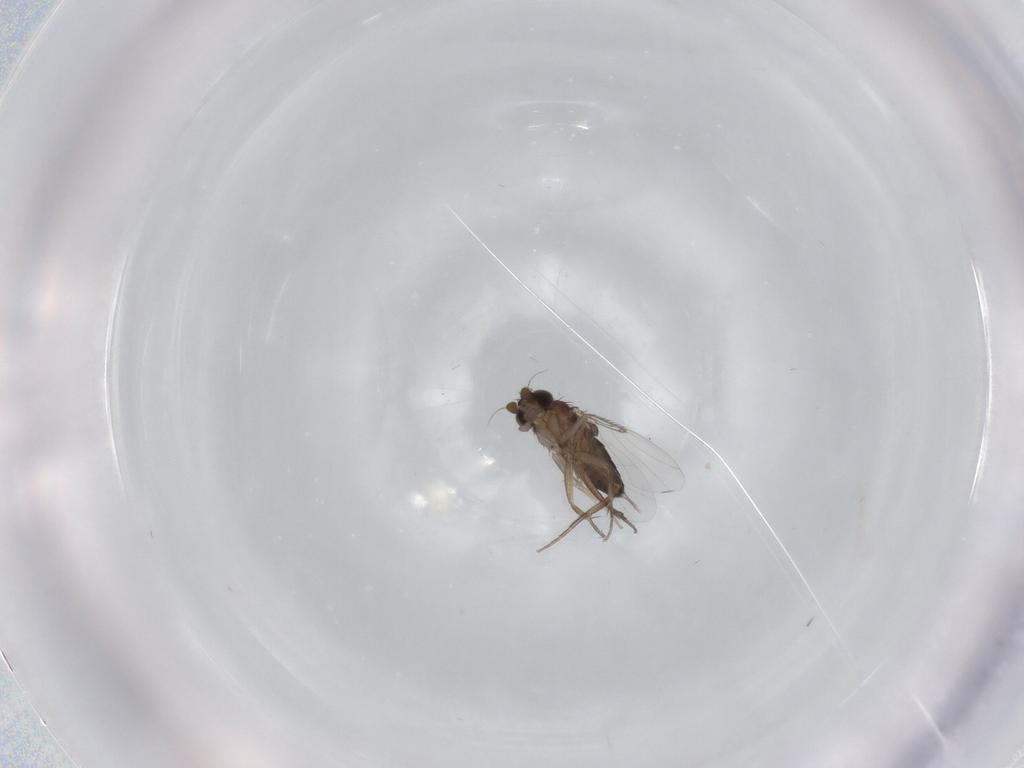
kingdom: Animalia
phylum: Arthropoda
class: Insecta
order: Diptera
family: Phoridae
